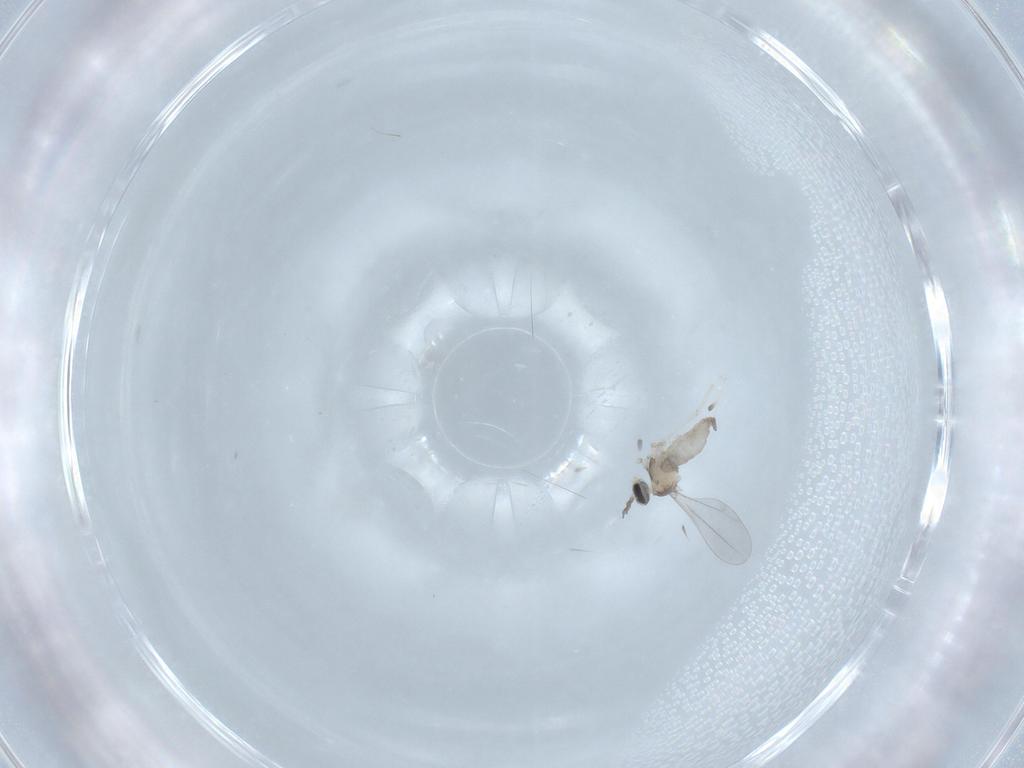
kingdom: Animalia
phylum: Arthropoda
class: Insecta
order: Diptera
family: Cecidomyiidae
